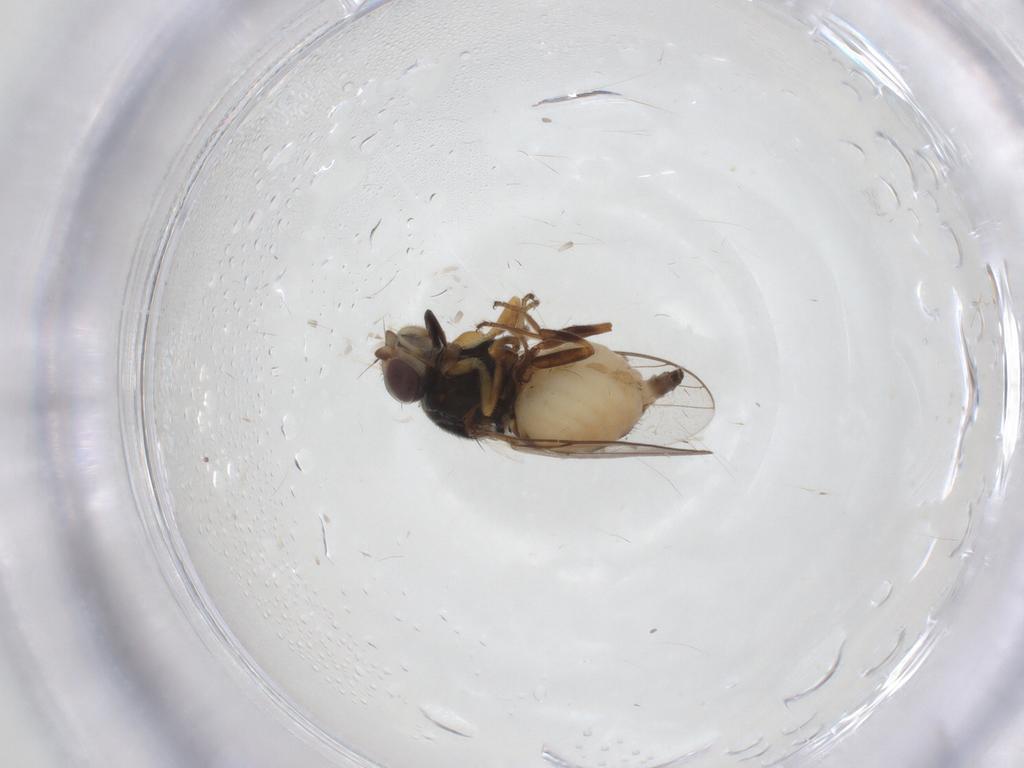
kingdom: Animalia
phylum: Arthropoda
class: Insecta
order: Diptera
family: Chloropidae
